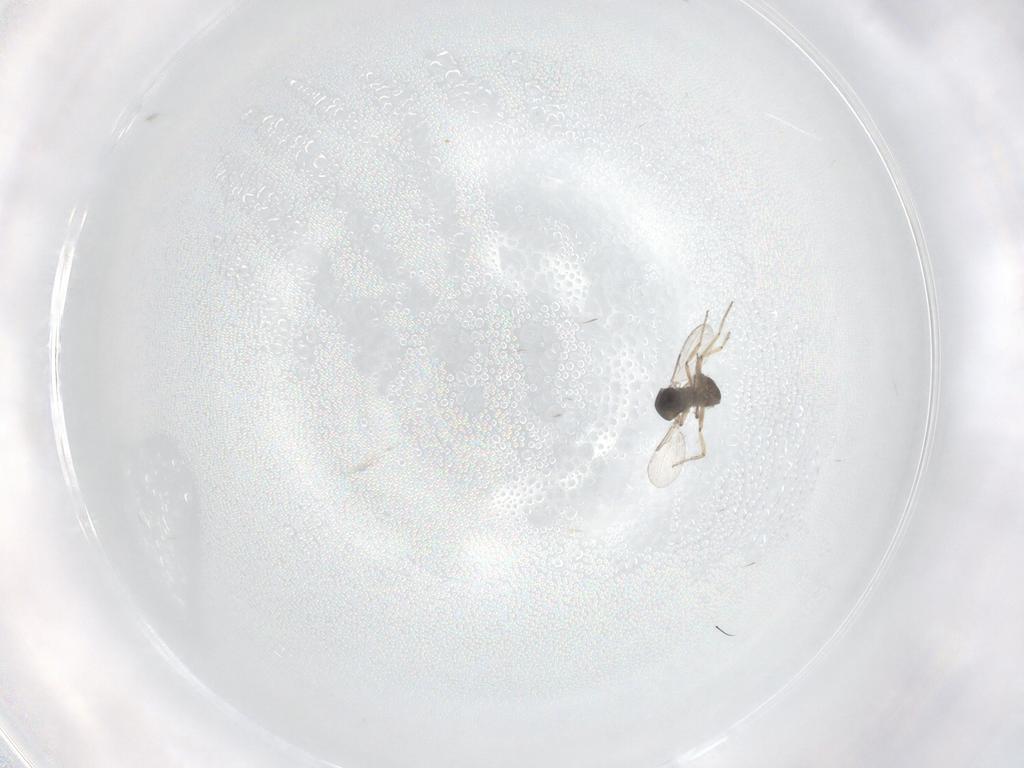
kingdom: Animalia
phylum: Arthropoda
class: Insecta
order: Diptera
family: Ceratopogonidae
